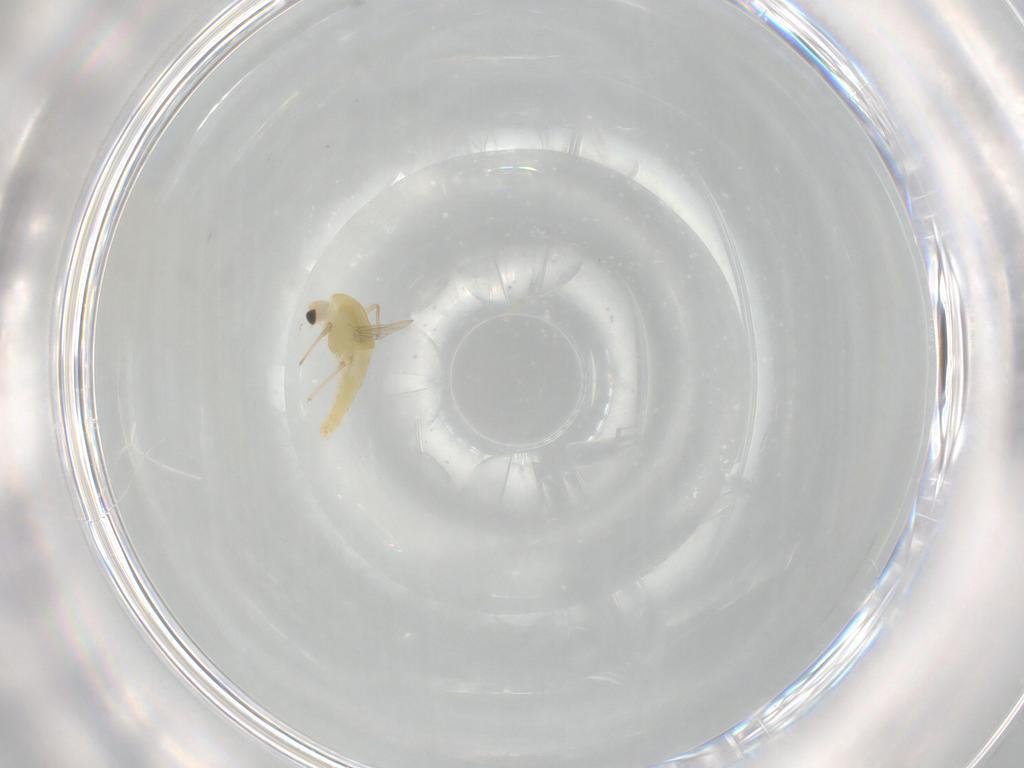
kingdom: Animalia
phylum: Arthropoda
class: Insecta
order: Diptera
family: Chironomidae
